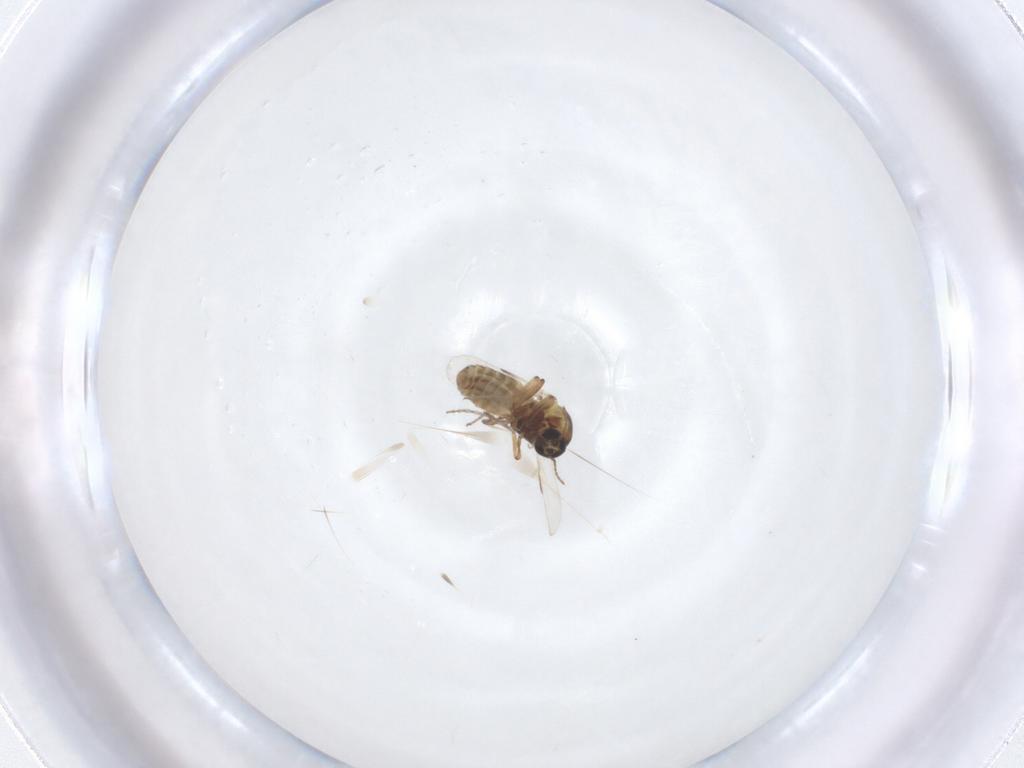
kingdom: Animalia
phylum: Arthropoda
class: Insecta
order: Diptera
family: Ceratopogonidae
